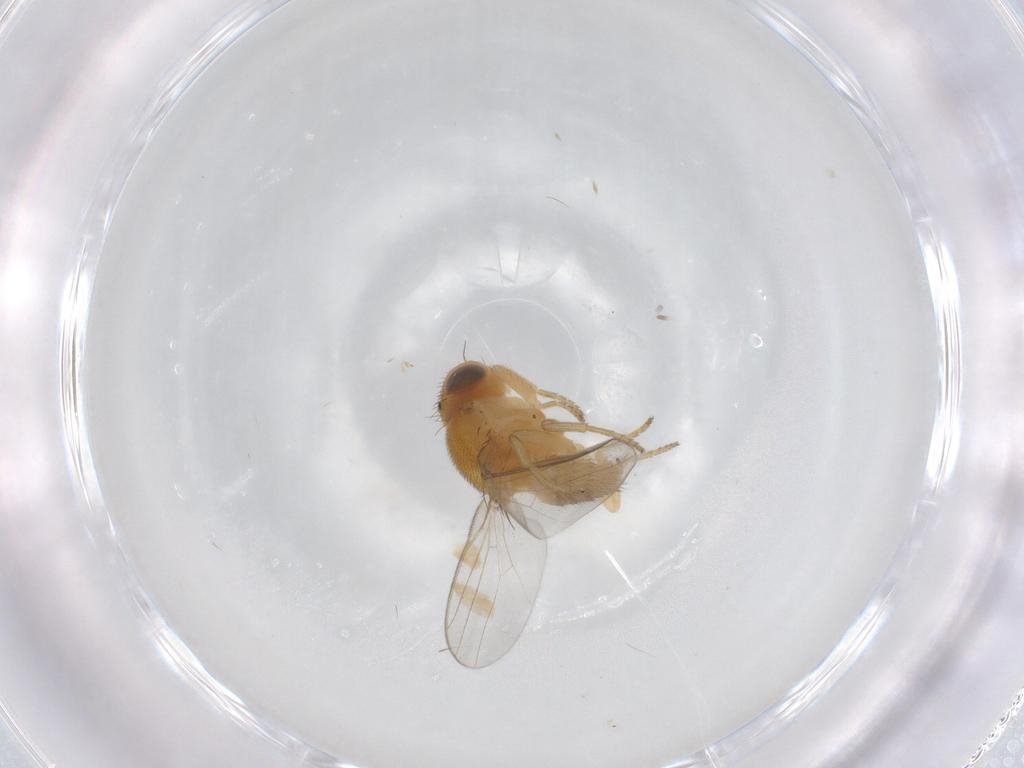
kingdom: Animalia
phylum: Arthropoda
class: Insecta
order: Diptera
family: Chloropidae
